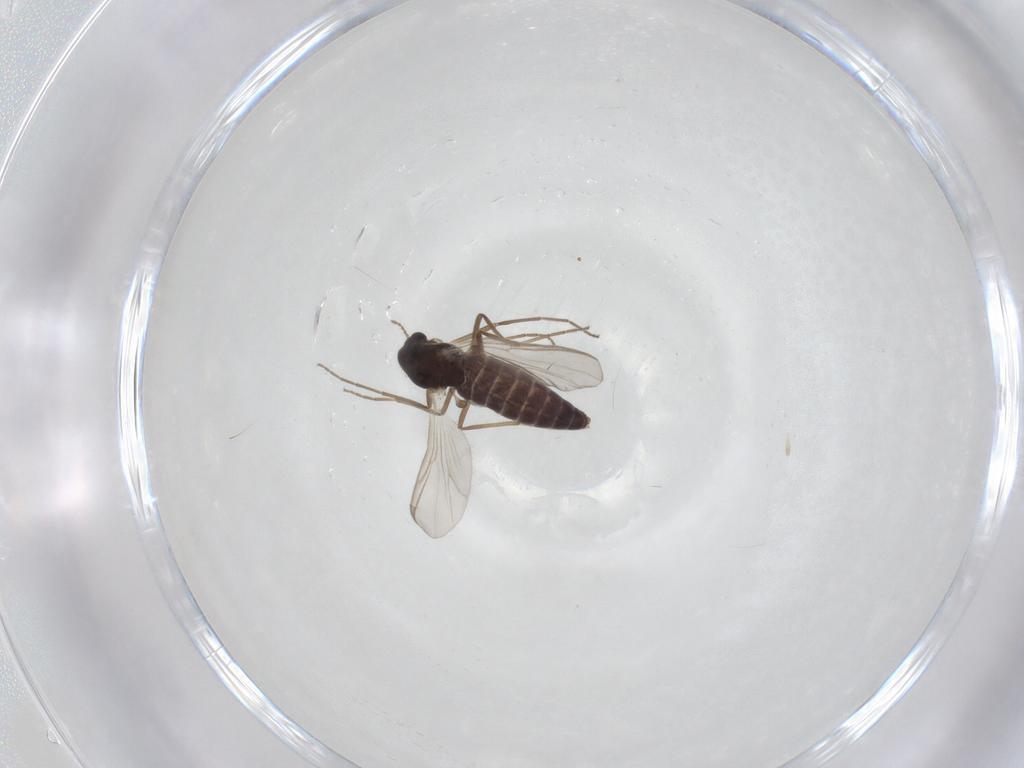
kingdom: Animalia
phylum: Arthropoda
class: Insecta
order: Diptera
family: Chironomidae
